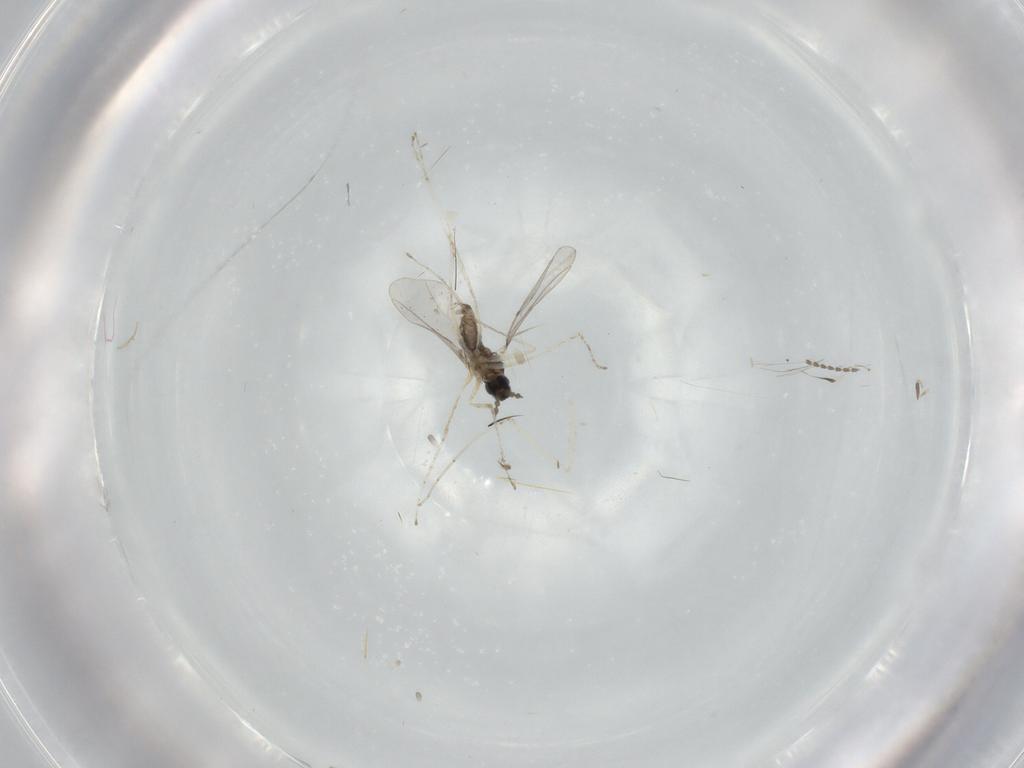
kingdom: Animalia
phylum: Arthropoda
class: Insecta
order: Diptera
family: Cecidomyiidae
